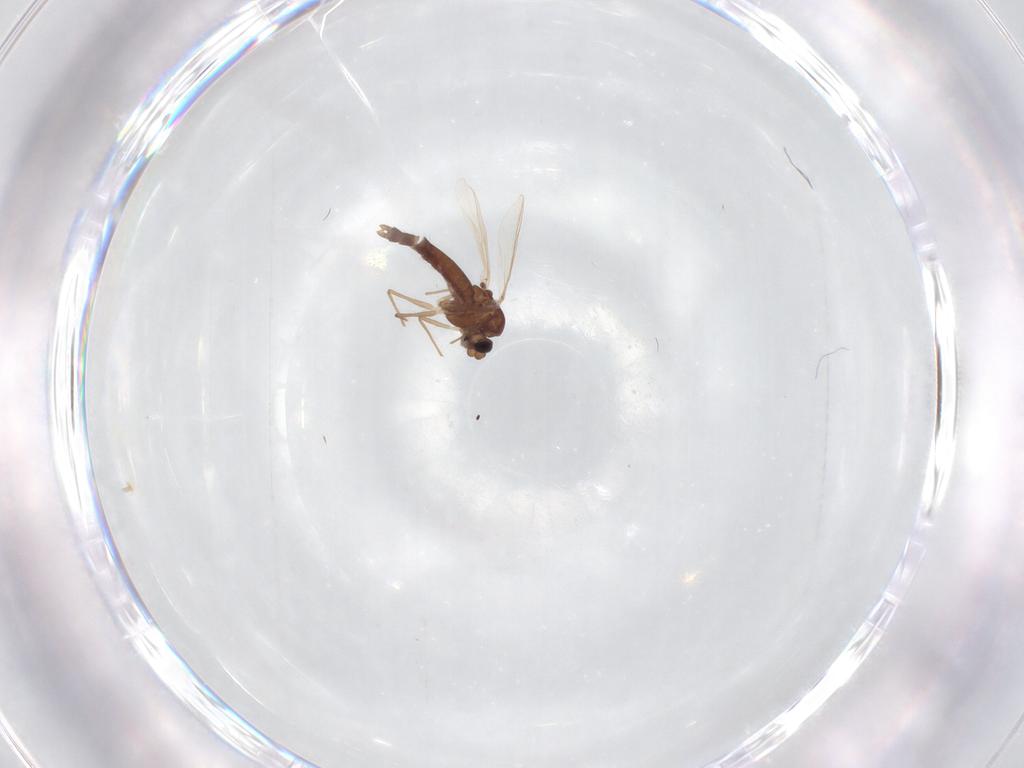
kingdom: Animalia
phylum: Arthropoda
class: Insecta
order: Diptera
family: Chironomidae
